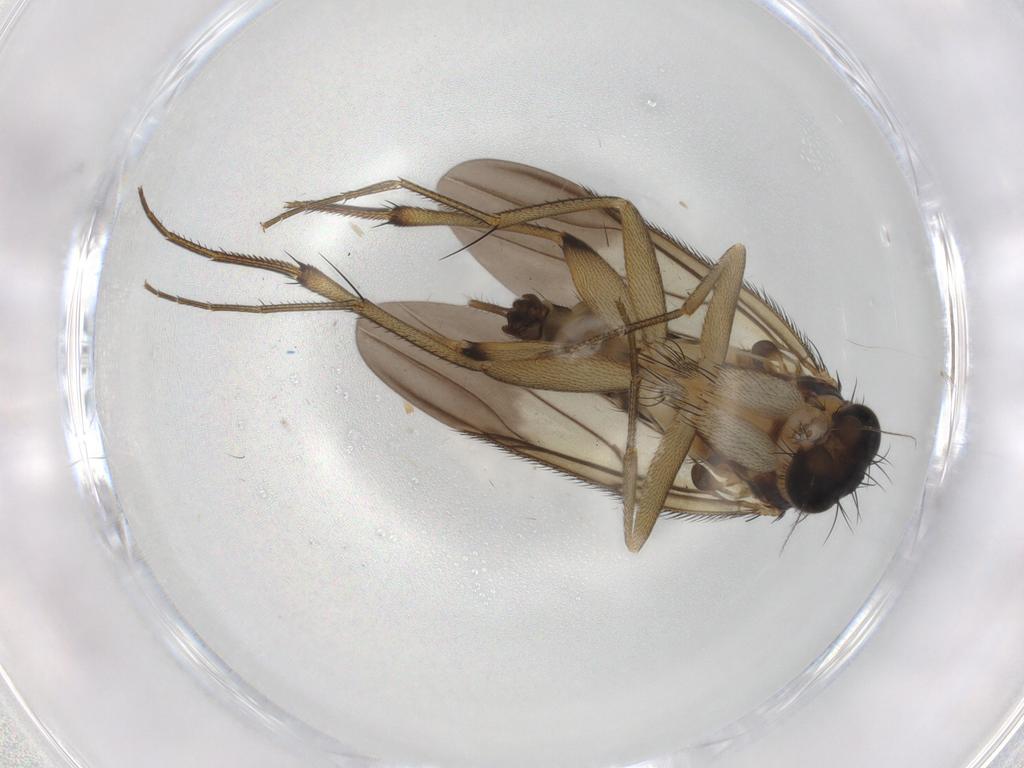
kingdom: Animalia
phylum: Arthropoda
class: Insecta
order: Diptera
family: Phoridae
